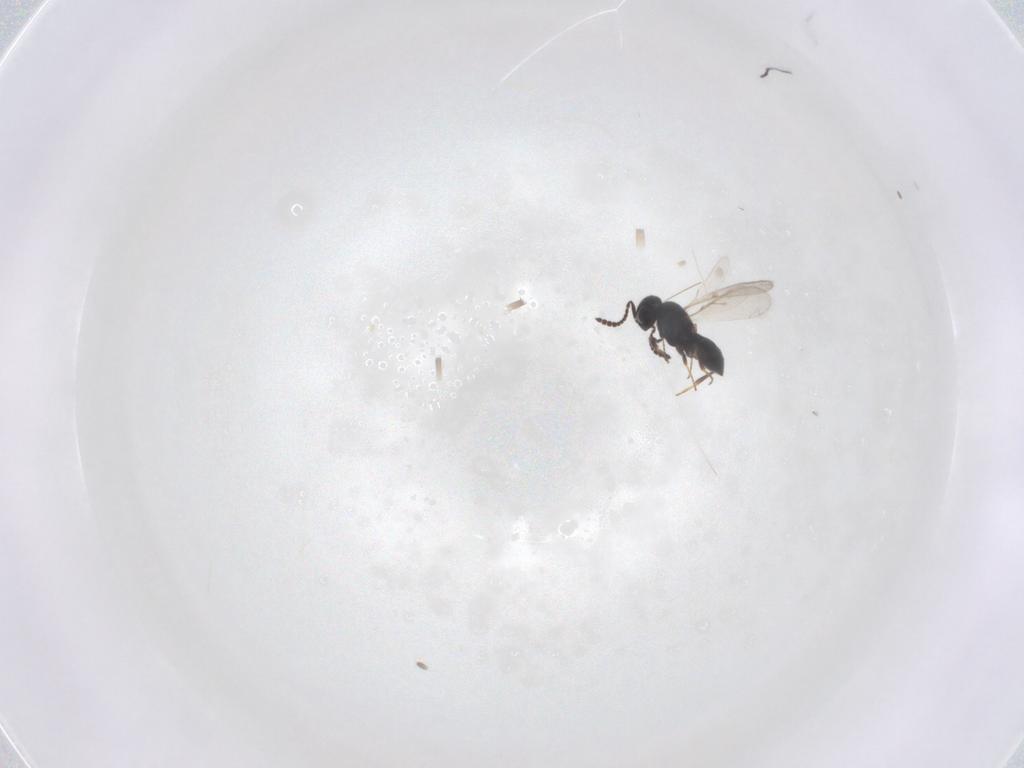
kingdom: Animalia
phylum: Arthropoda
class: Insecta
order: Hymenoptera
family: Scelionidae
